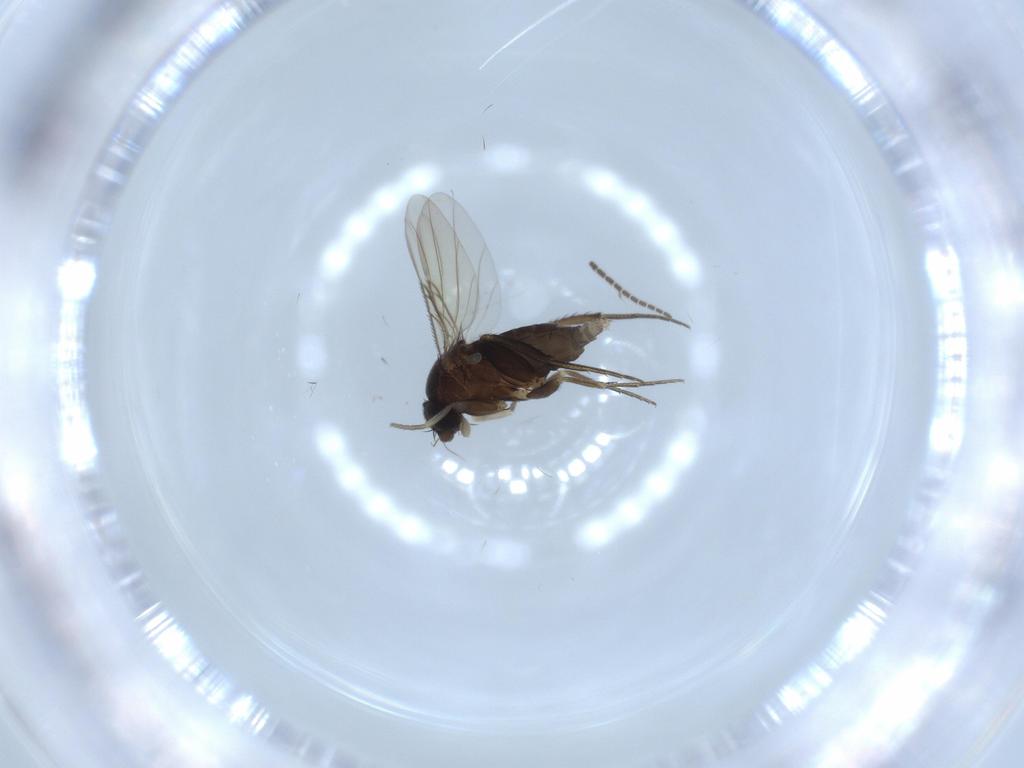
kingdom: Animalia
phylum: Arthropoda
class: Insecta
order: Diptera
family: Phoridae
